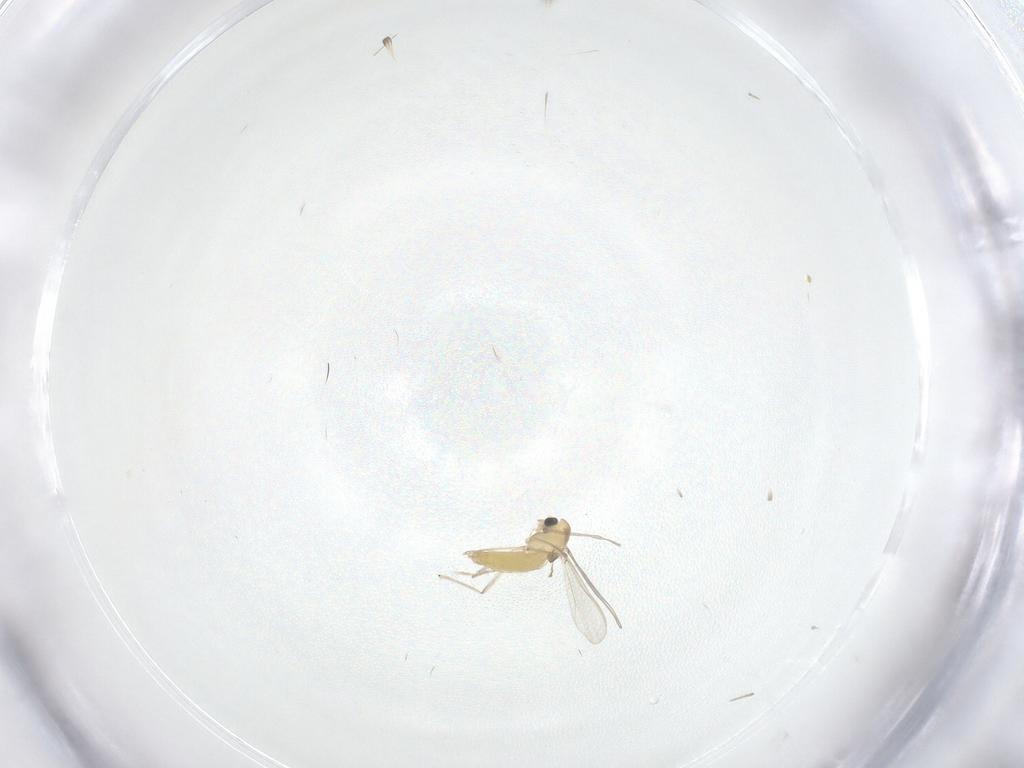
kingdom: Animalia
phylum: Arthropoda
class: Insecta
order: Diptera
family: Chironomidae
